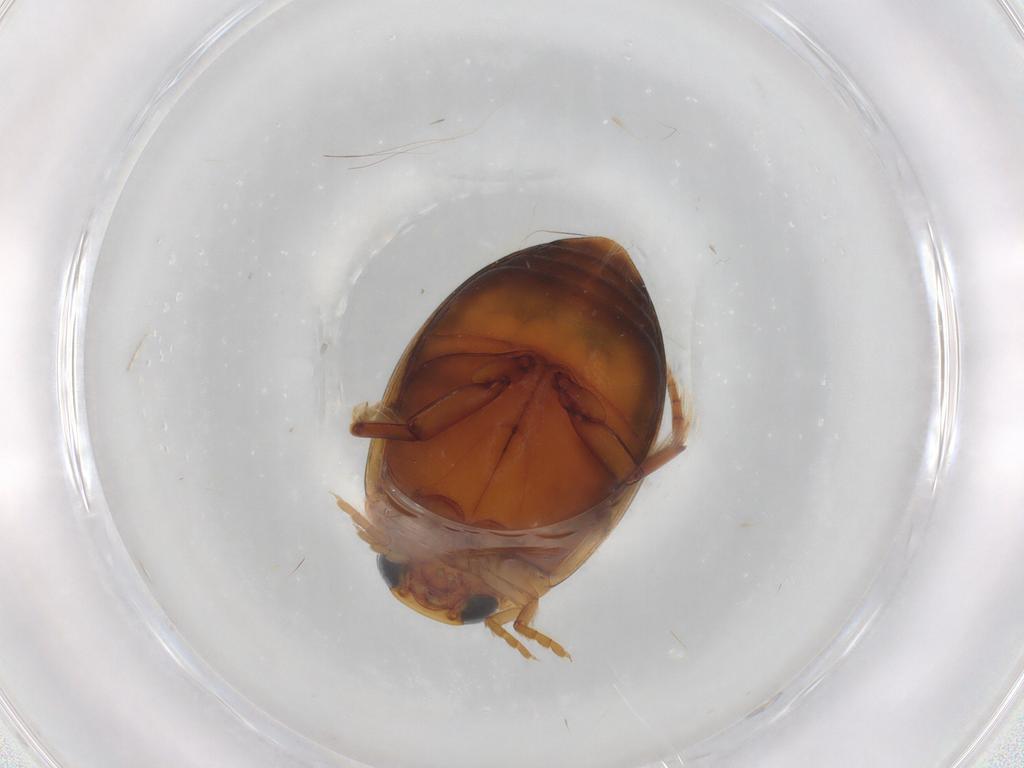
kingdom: Animalia
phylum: Arthropoda
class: Insecta
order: Coleoptera
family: Dytiscidae
